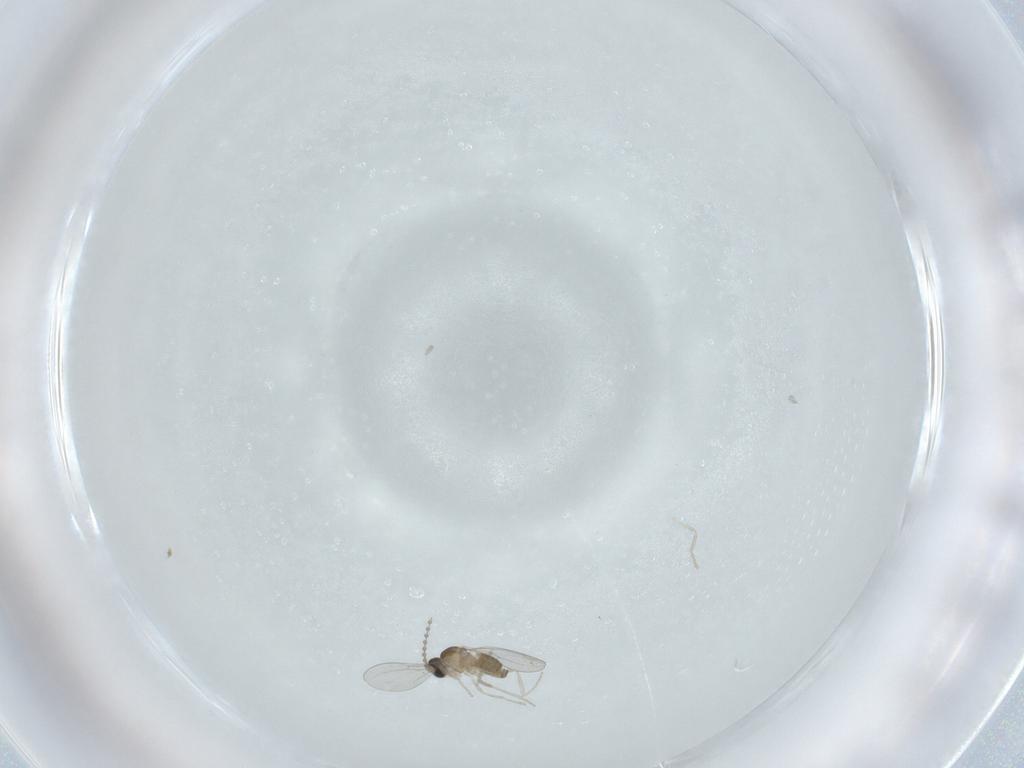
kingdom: Animalia
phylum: Arthropoda
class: Insecta
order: Diptera
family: Cecidomyiidae
